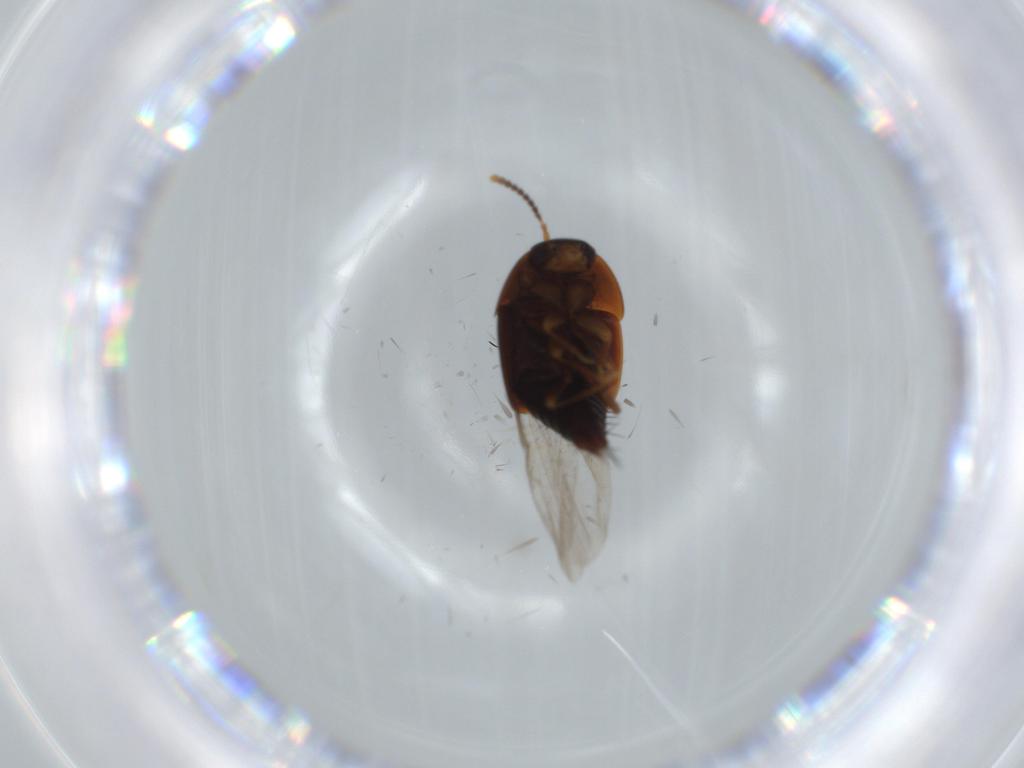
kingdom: Animalia
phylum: Arthropoda
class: Insecta
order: Coleoptera
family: Staphylinidae
